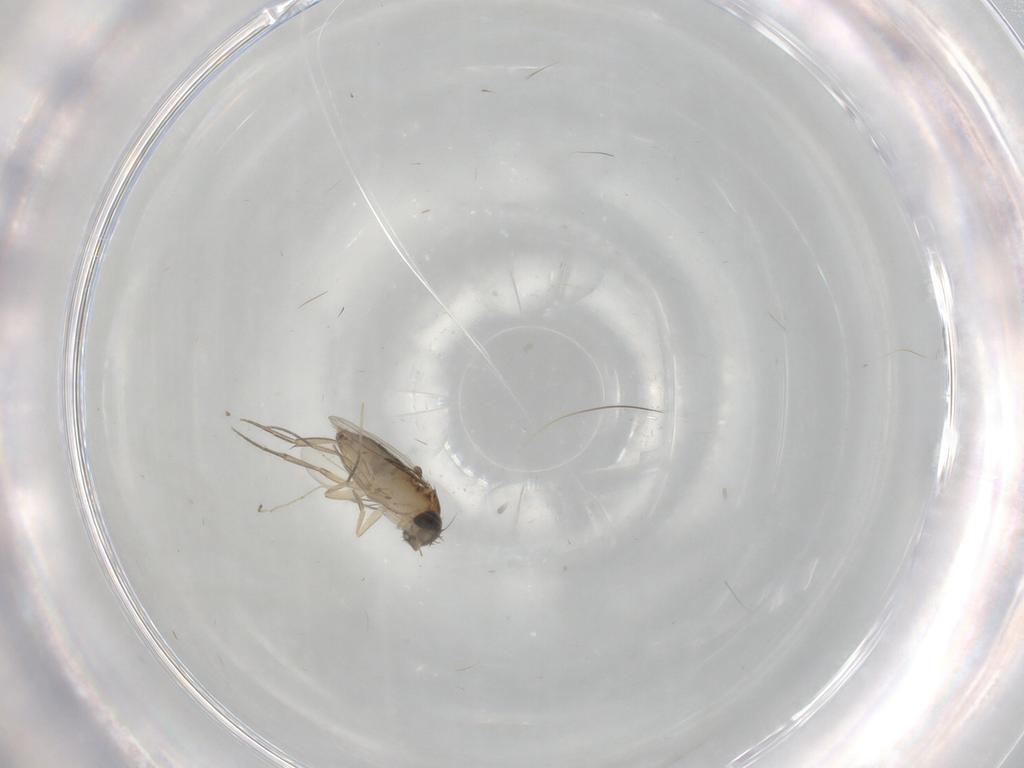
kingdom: Animalia
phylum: Arthropoda
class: Insecta
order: Diptera
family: Phoridae
